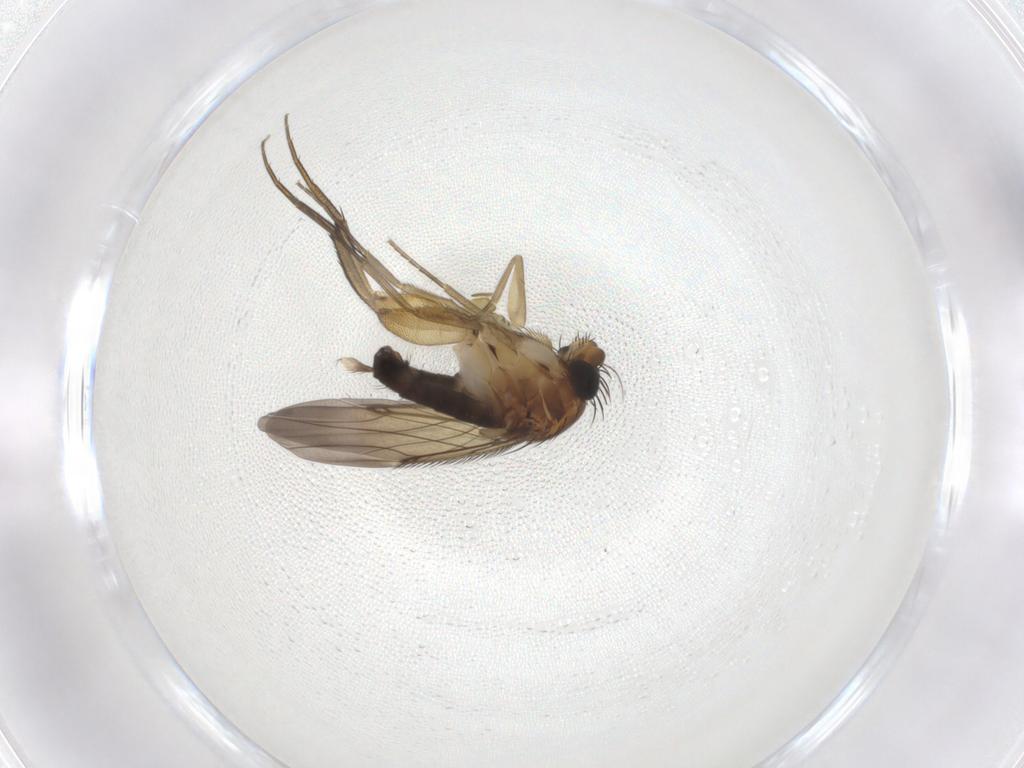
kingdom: Animalia
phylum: Arthropoda
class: Insecta
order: Diptera
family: Phoridae
